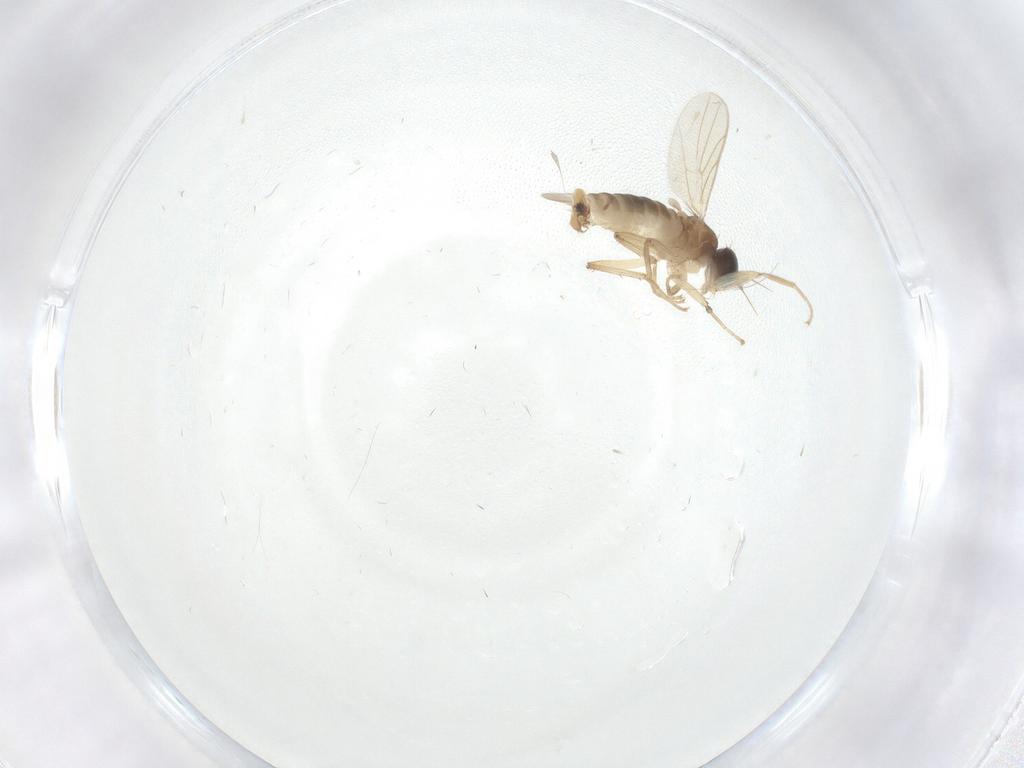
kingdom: Animalia
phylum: Arthropoda
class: Insecta
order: Diptera
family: Hybotidae
